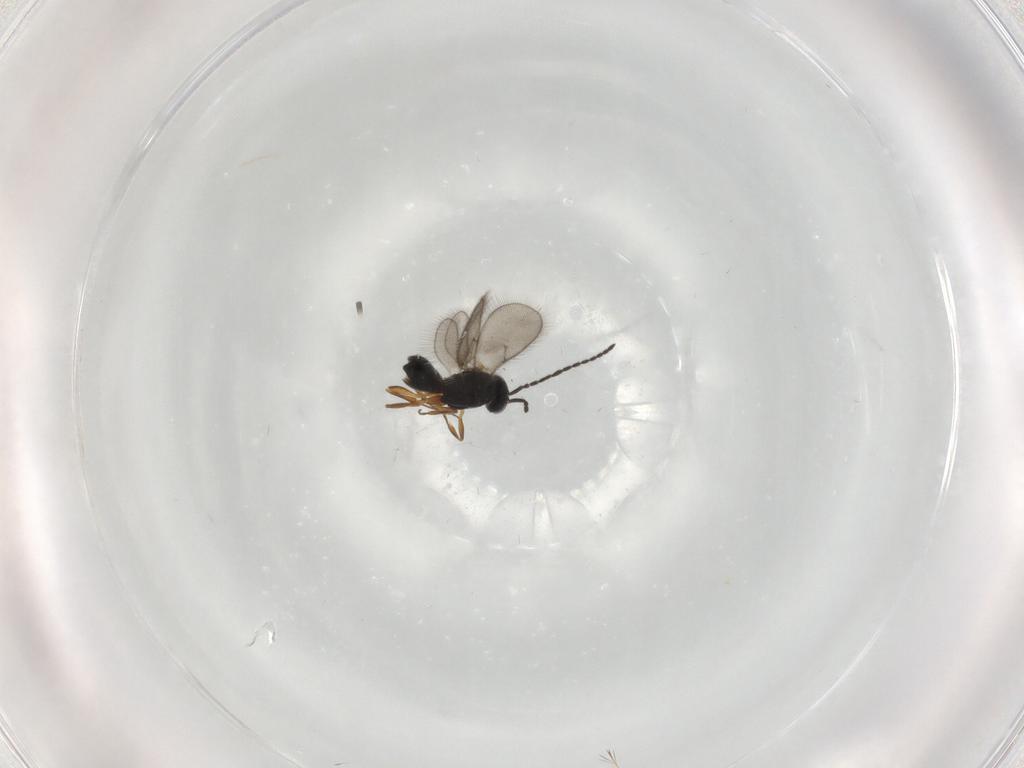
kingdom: Animalia
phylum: Arthropoda
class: Insecta
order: Hymenoptera
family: Scelionidae
